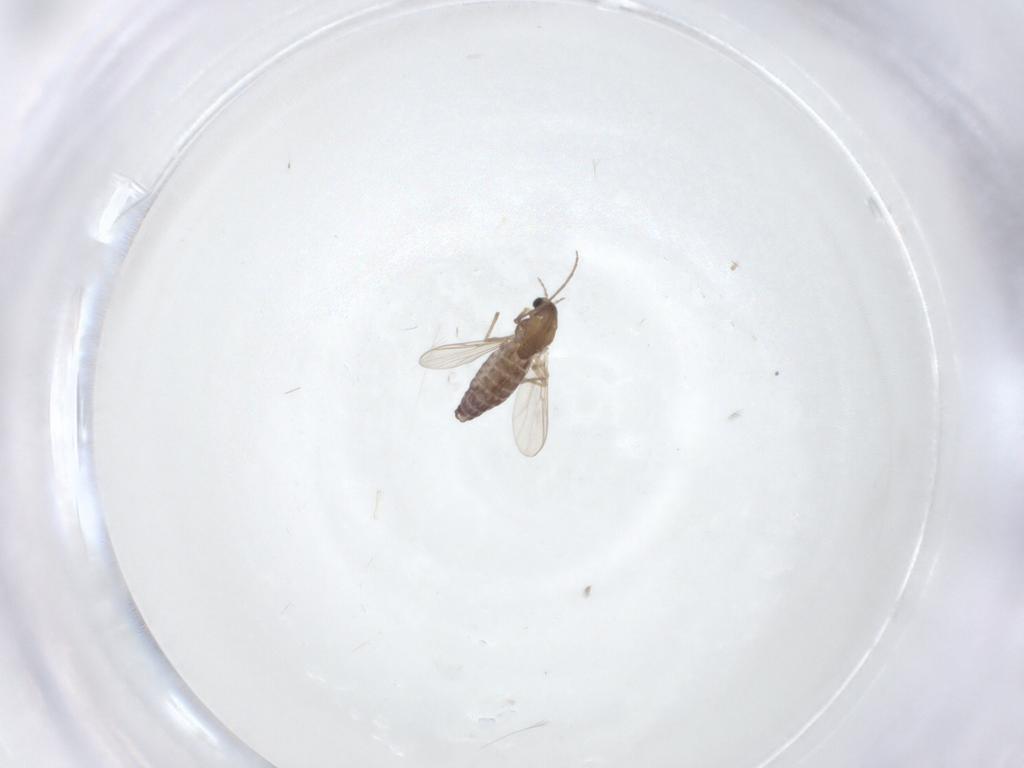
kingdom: Animalia
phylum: Arthropoda
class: Insecta
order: Diptera
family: Chironomidae
